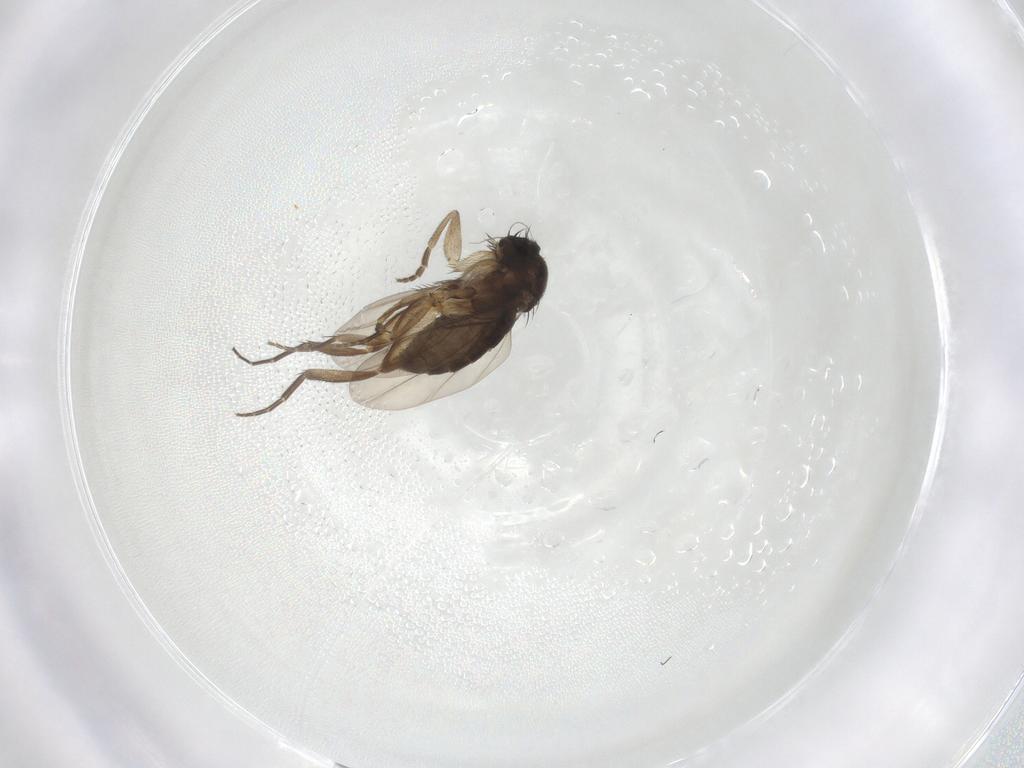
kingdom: Animalia
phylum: Arthropoda
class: Insecta
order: Diptera
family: Phoridae
